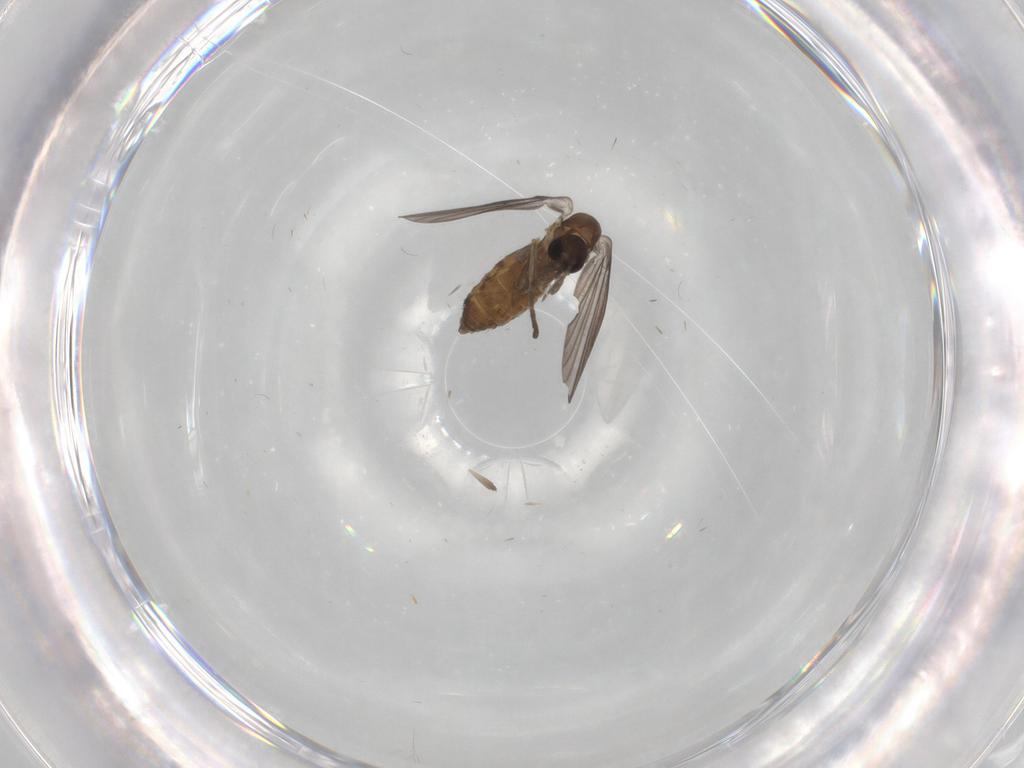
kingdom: Animalia
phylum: Arthropoda
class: Insecta
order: Diptera
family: Psychodidae
